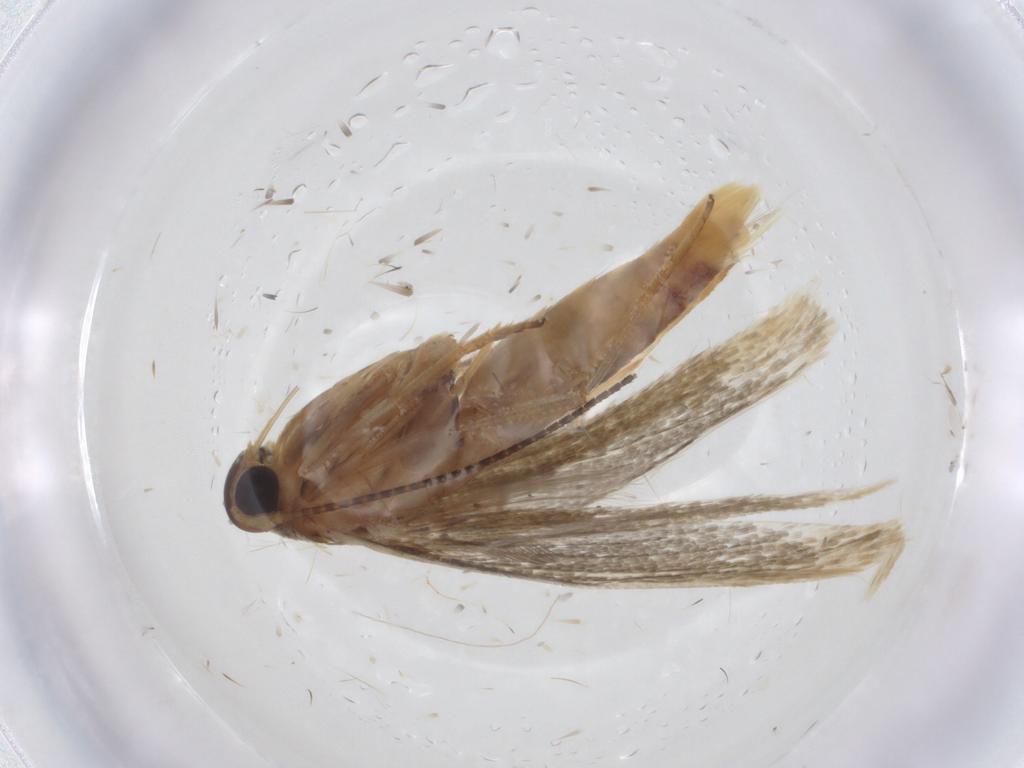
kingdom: Animalia
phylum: Arthropoda
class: Insecta
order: Lepidoptera
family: Stathmopodidae
